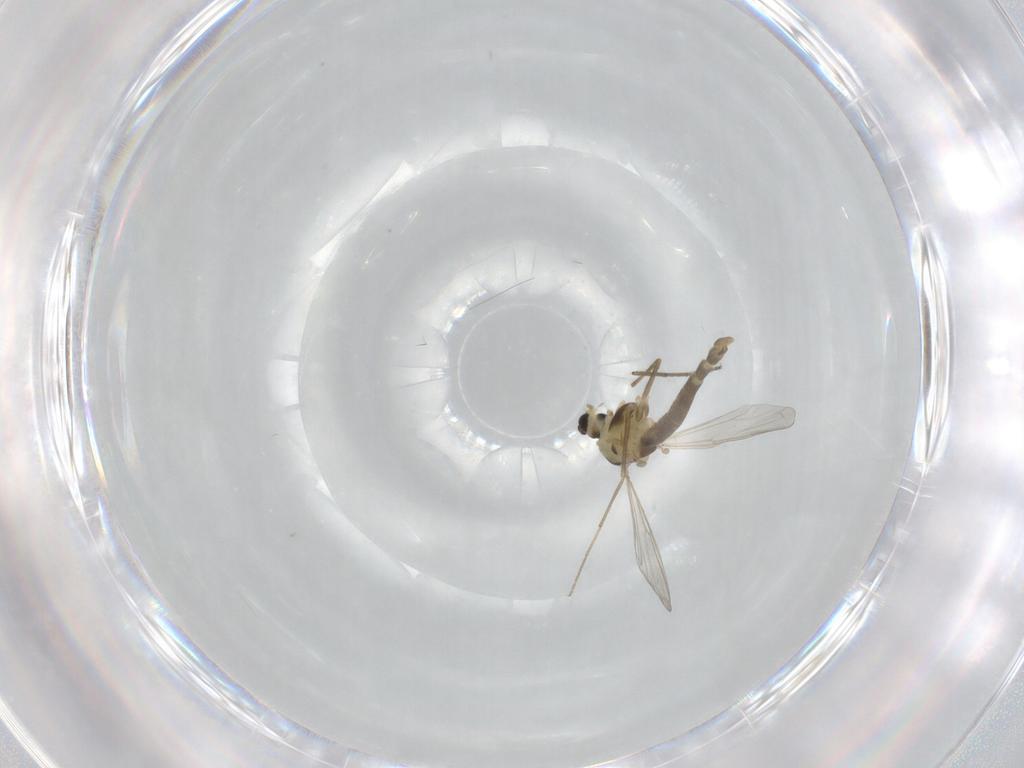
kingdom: Animalia
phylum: Arthropoda
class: Insecta
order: Diptera
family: Chironomidae
